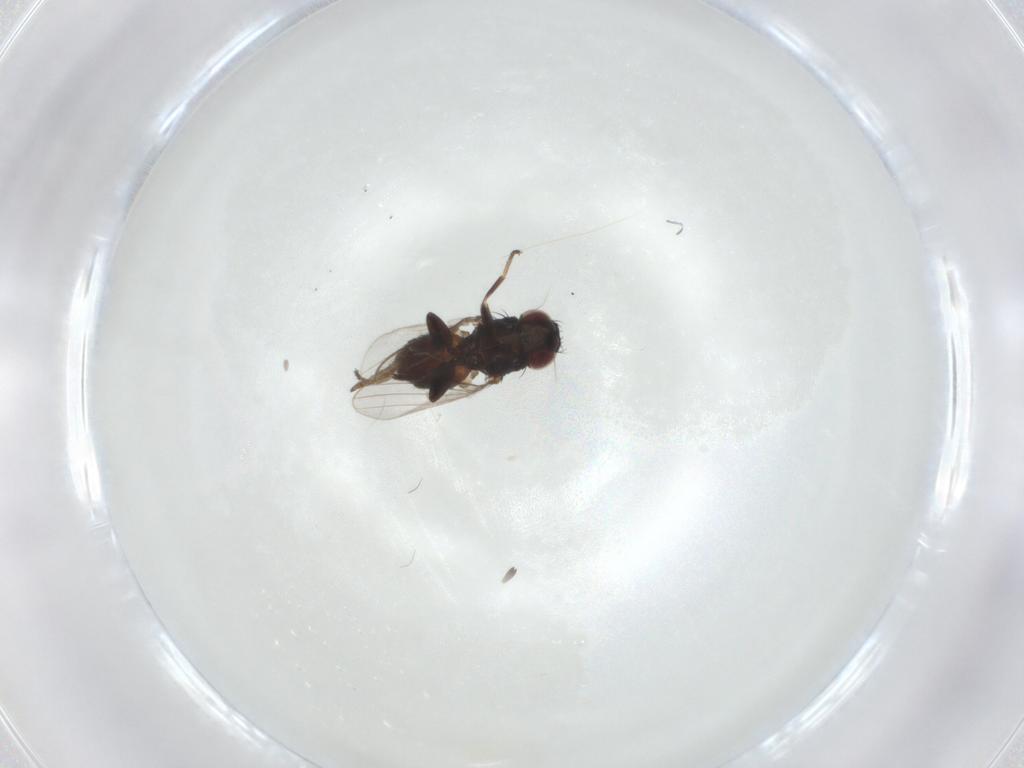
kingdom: Animalia
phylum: Arthropoda
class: Insecta
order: Diptera
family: Milichiidae
